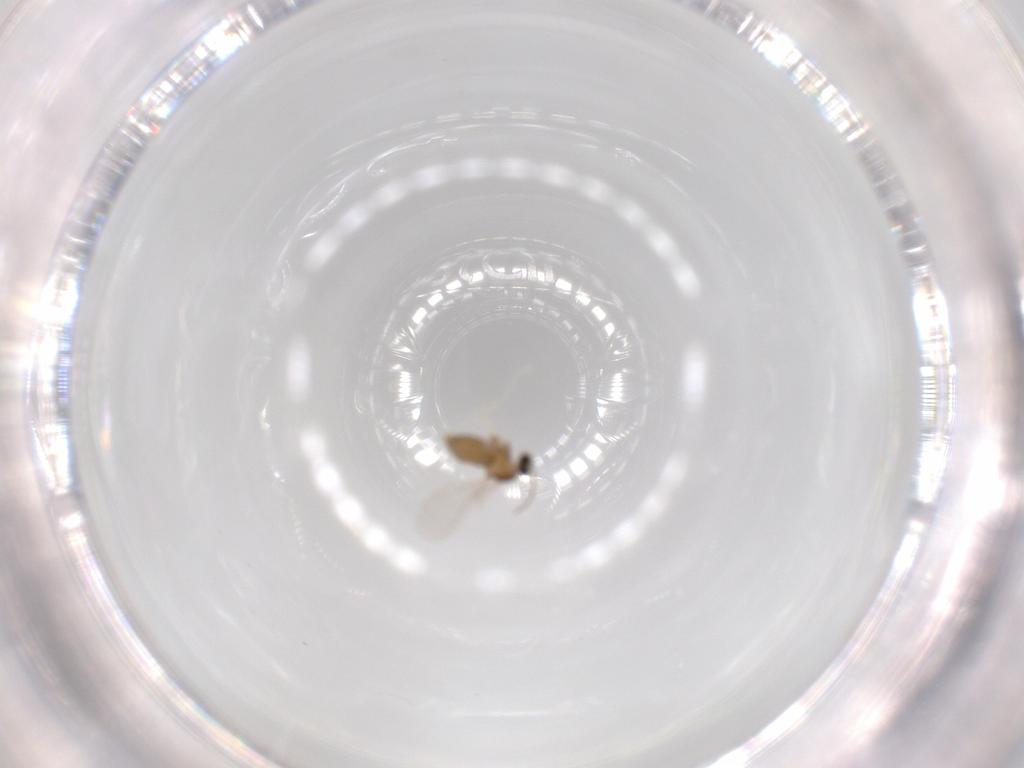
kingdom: Animalia
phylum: Arthropoda
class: Insecta
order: Diptera
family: Cecidomyiidae
